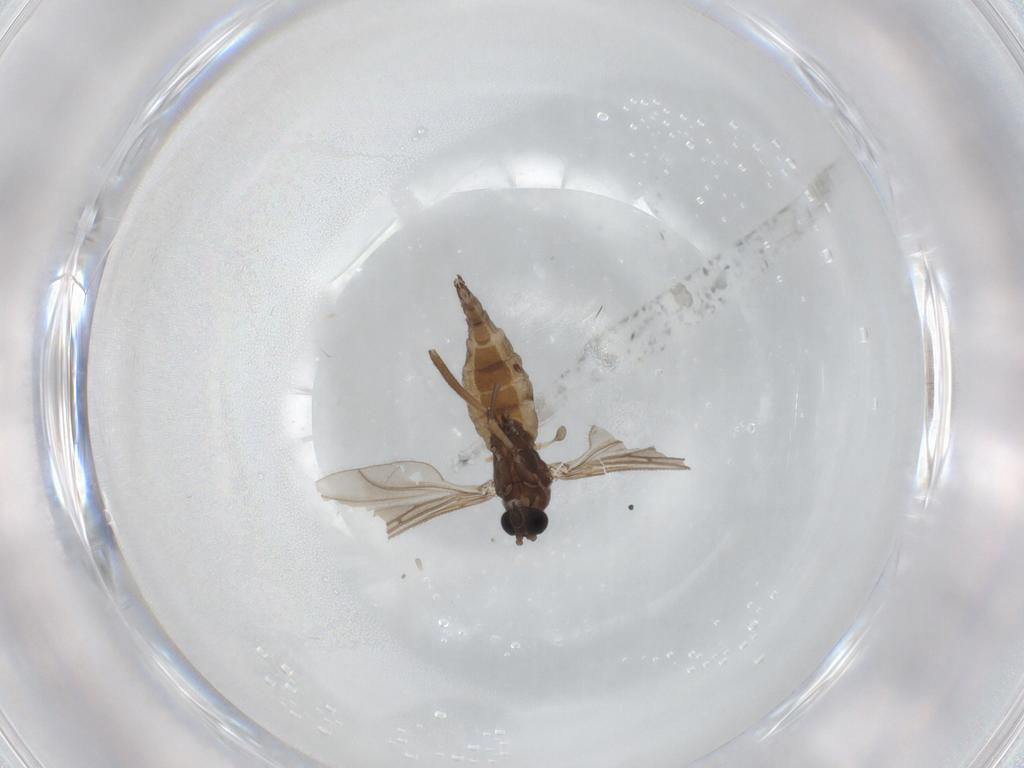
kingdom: Animalia
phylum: Arthropoda
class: Insecta
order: Diptera
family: Sciaridae
